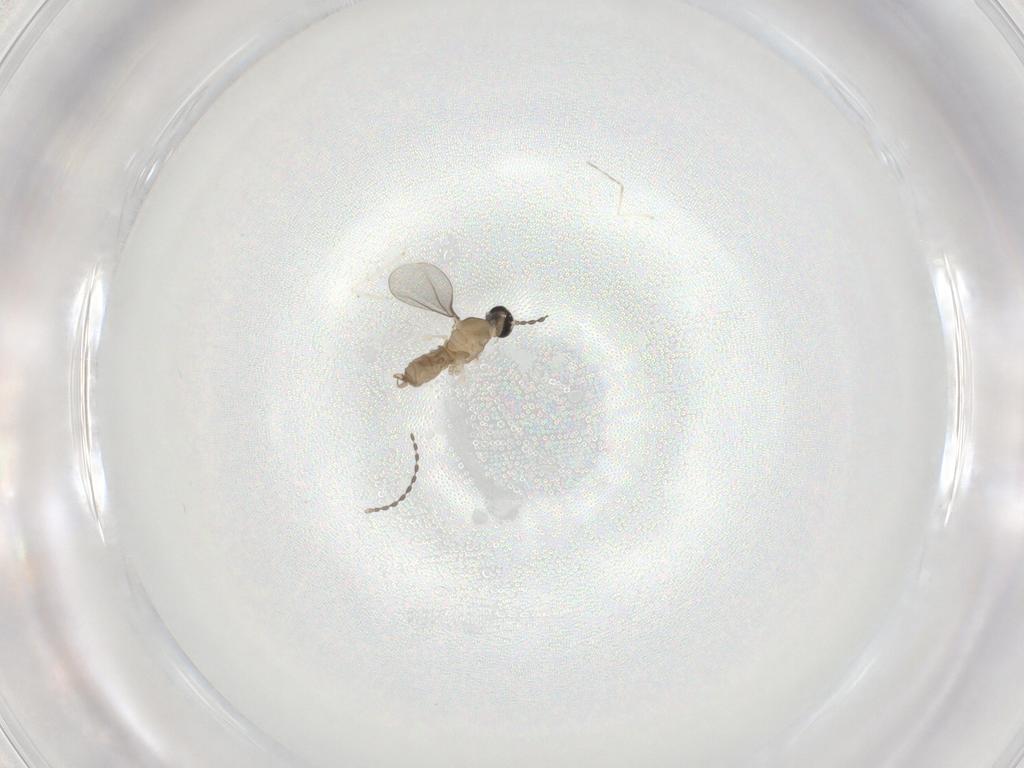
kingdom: Animalia
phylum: Arthropoda
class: Insecta
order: Diptera
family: Cecidomyiidae
